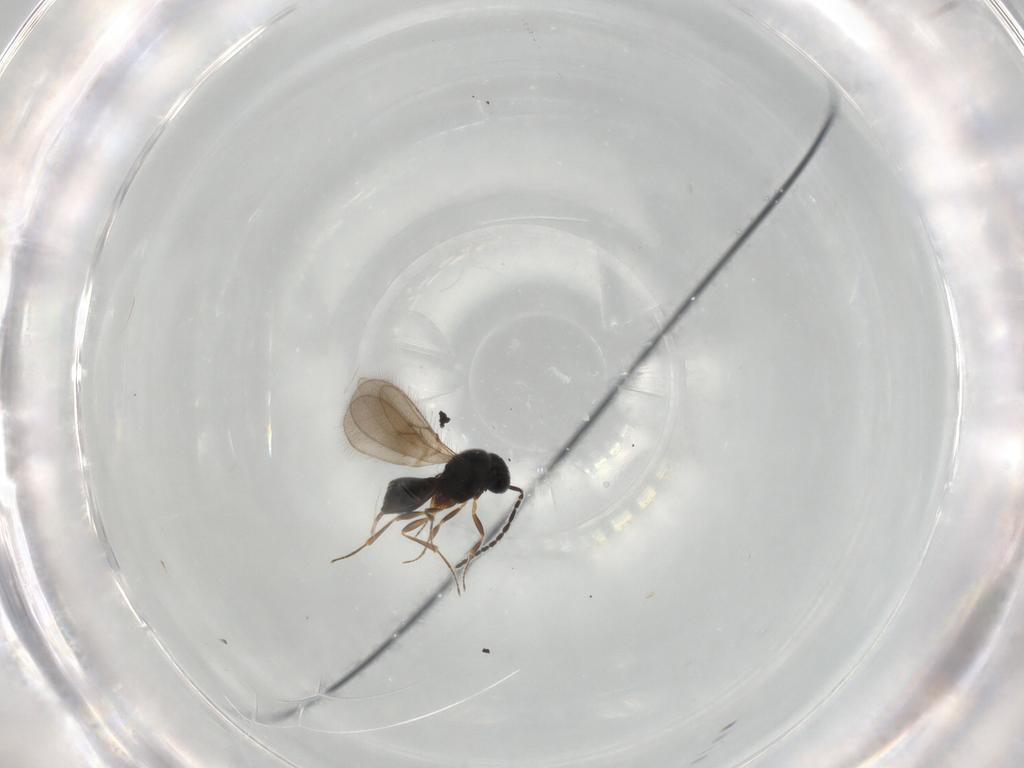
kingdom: Animalia
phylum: Arthropoda
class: Insecta
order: Hymenoptera
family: Scelionidae
